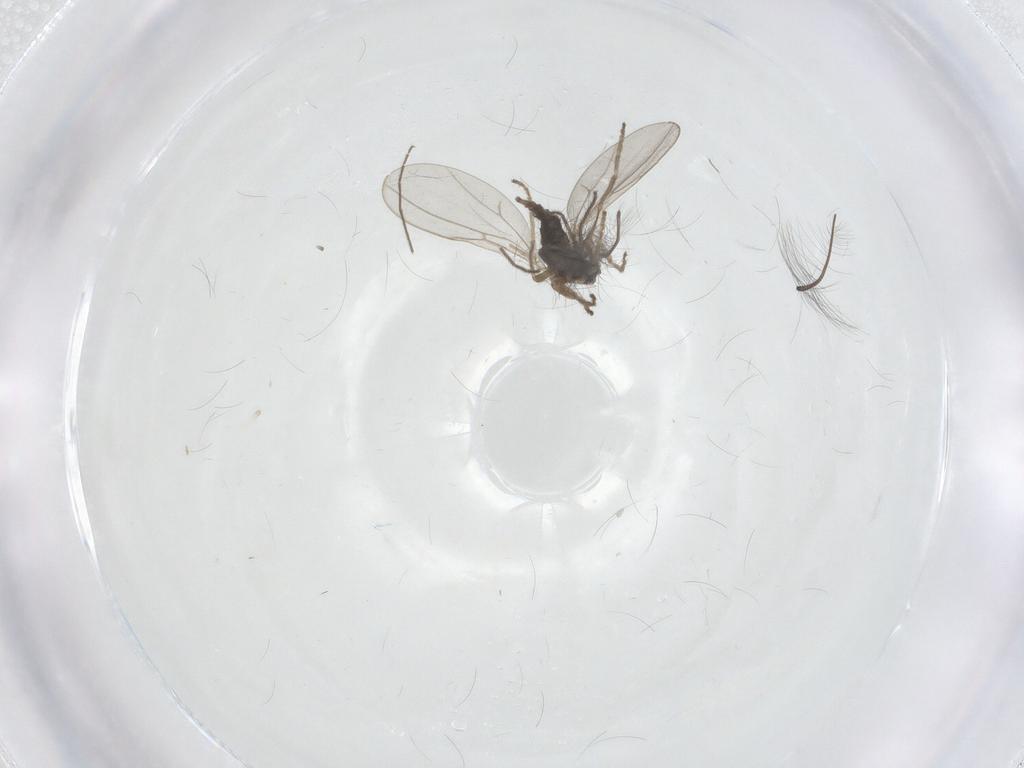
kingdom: Animalia
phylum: Arthropoda
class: Insecta
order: Diptera
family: Cecidomyiidae
